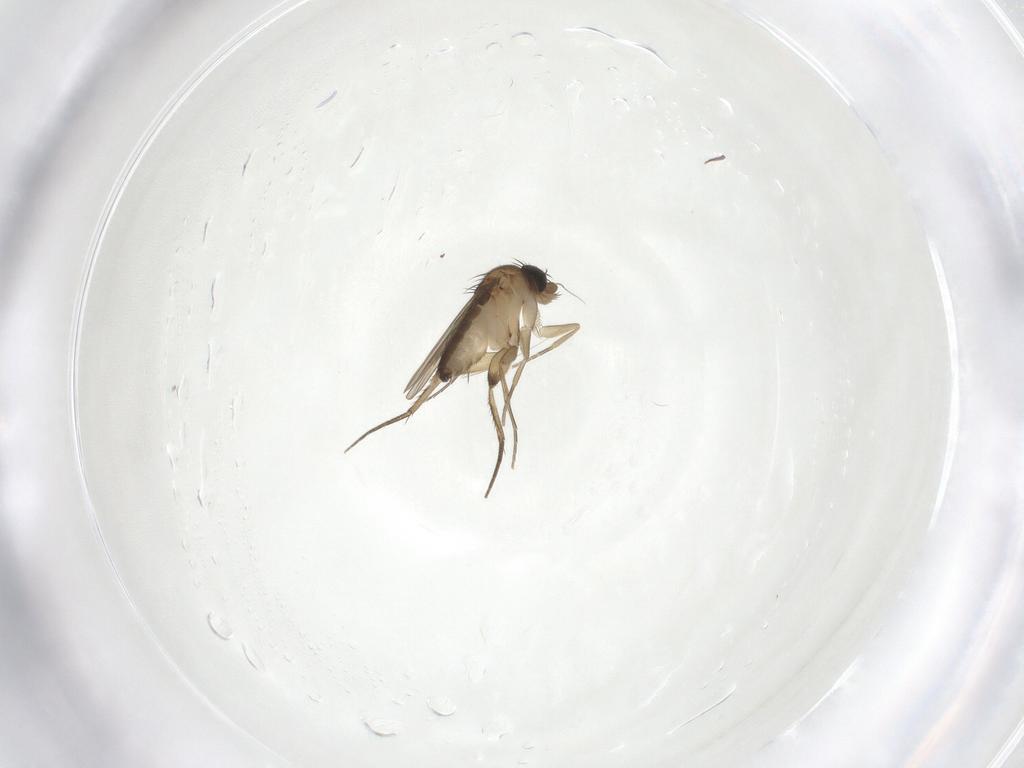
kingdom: Animalia
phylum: Arthropoda
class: Insecta
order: Diptera
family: Phoridae
